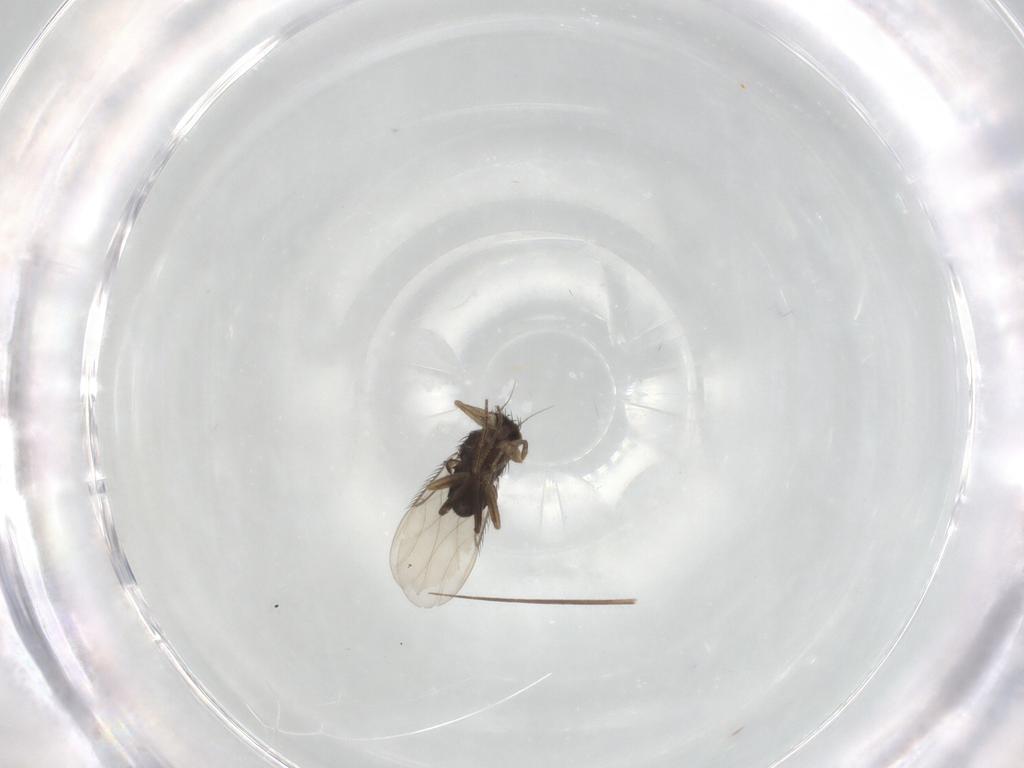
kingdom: Animalia
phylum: Arthropoda
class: Insecta
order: Diptera
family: Phoridae
